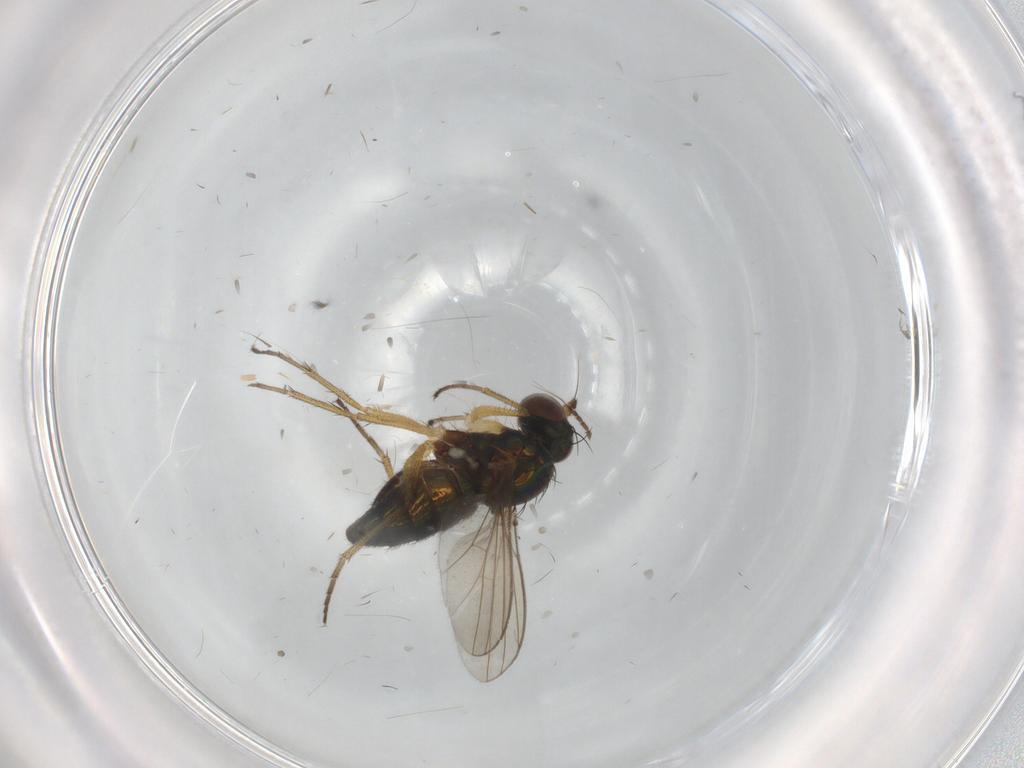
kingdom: Animalia
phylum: Arthropoda
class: Insecta
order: Diptera
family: Dolichopodidae
